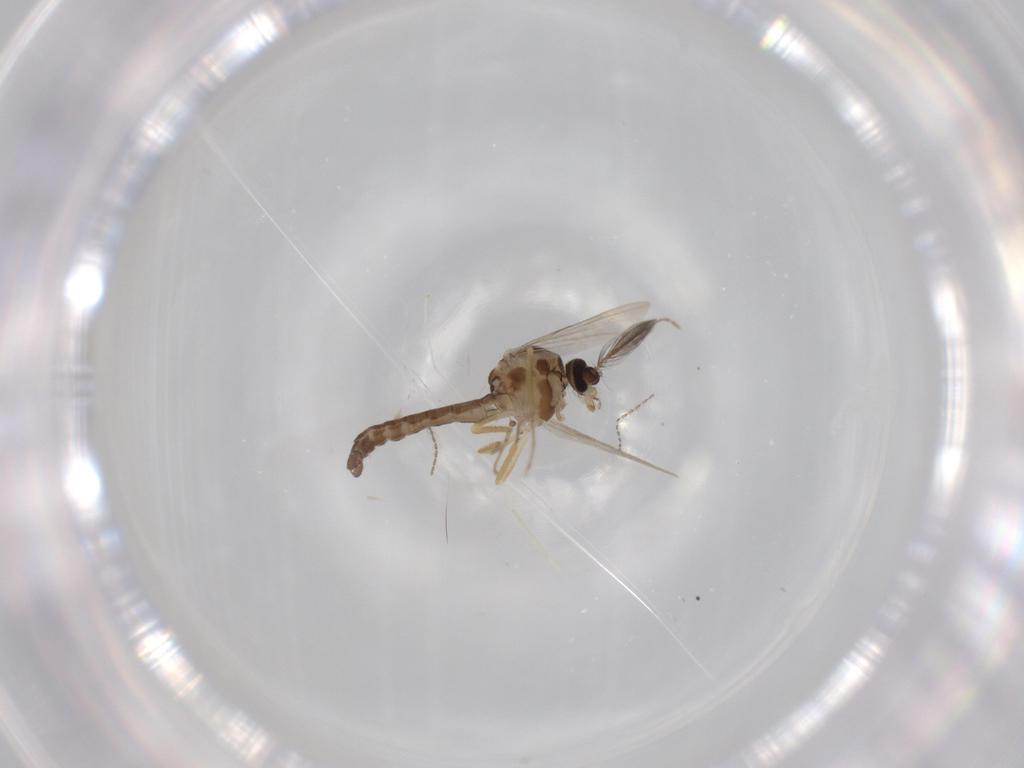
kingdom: Animalia
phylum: Arthropoda
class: Insecta
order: Diptera
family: Ceratopogonidae
